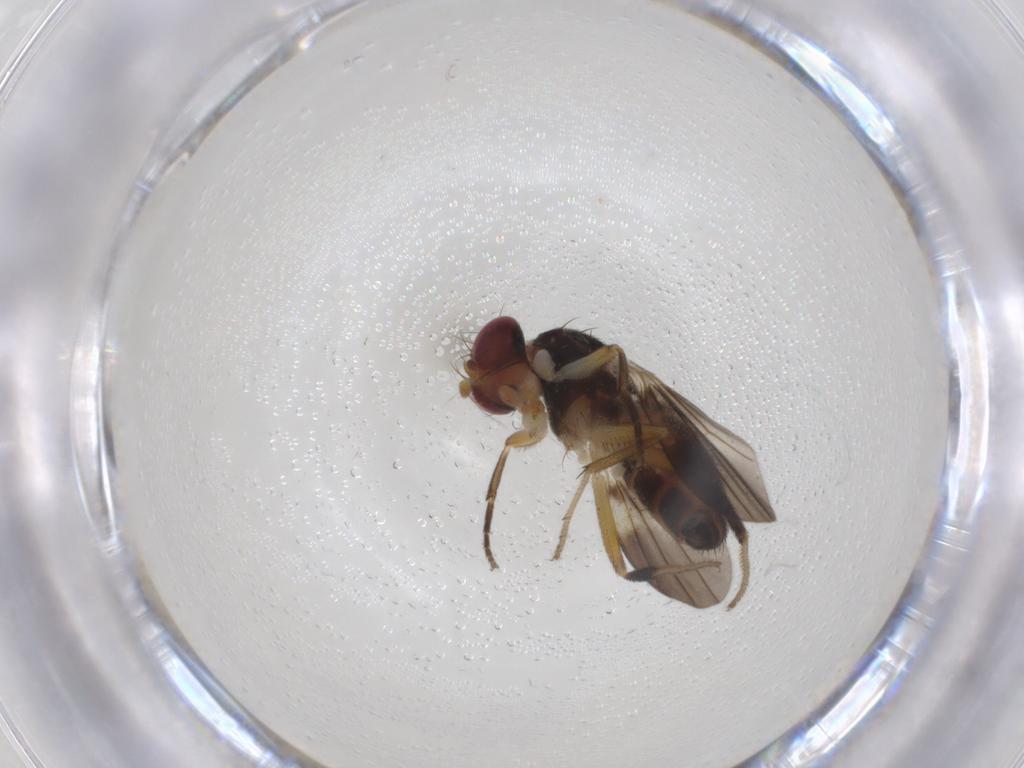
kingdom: Animalia
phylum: Arthropoda
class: Insecta
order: Diptera
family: Clusiidae
